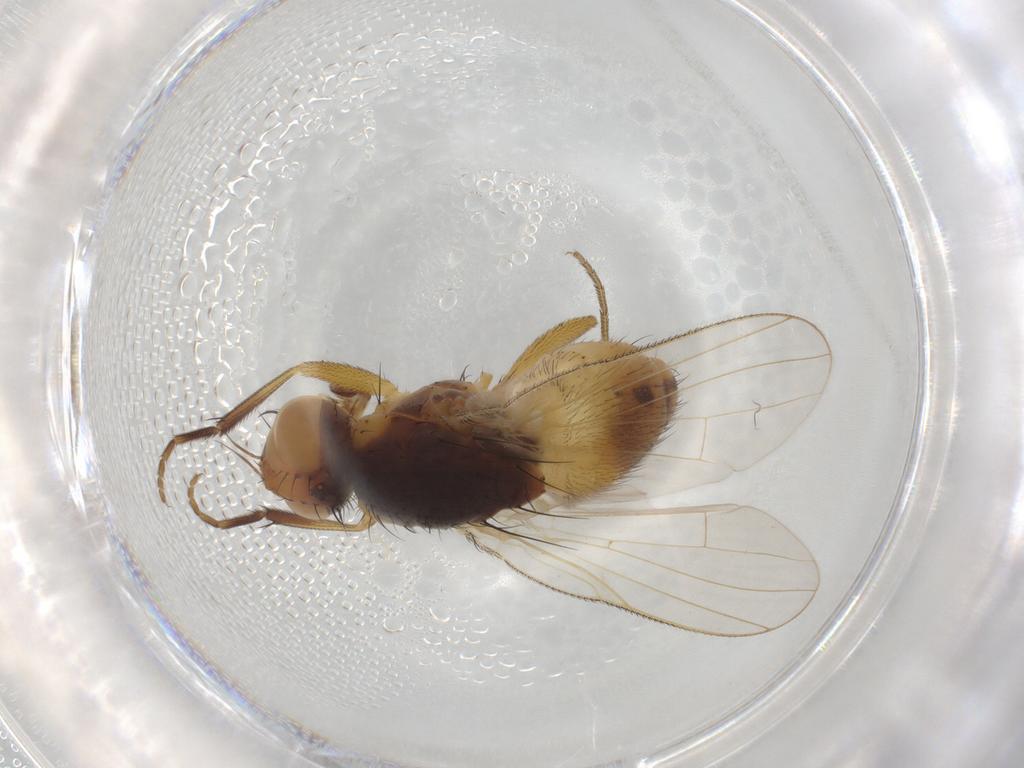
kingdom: Animalia
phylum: Arthropoda
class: Insecta
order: Diptera
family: Muscidae
